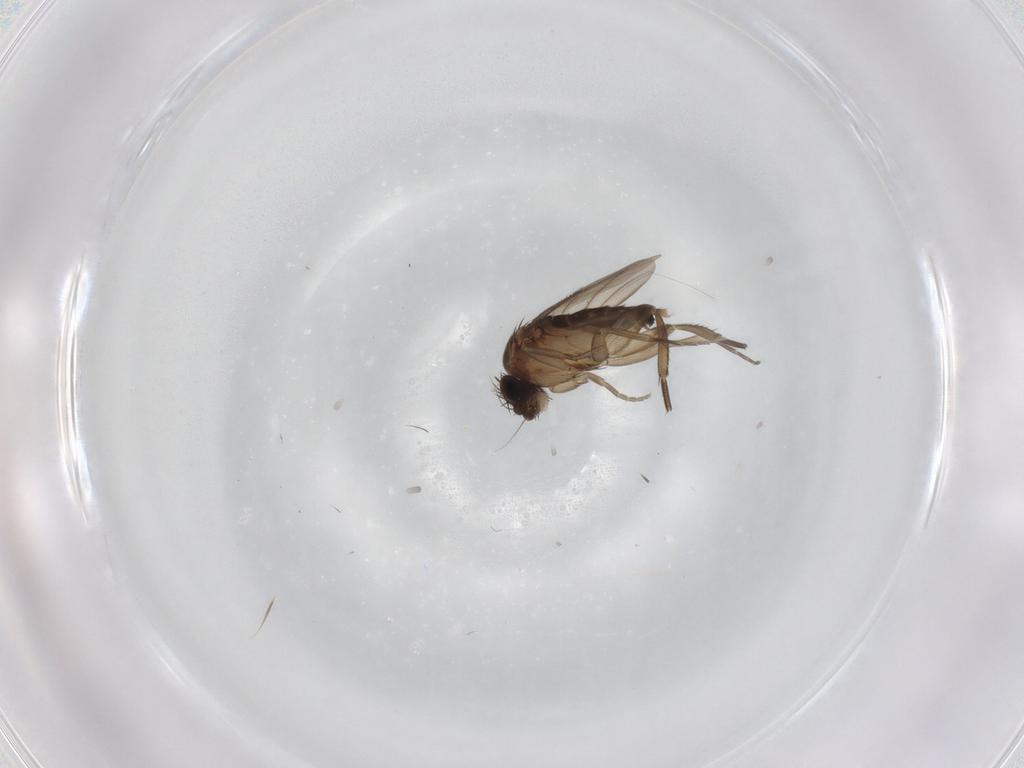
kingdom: Animalia
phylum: Arthropoda
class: Insecta
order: Diptera
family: Phoridae
